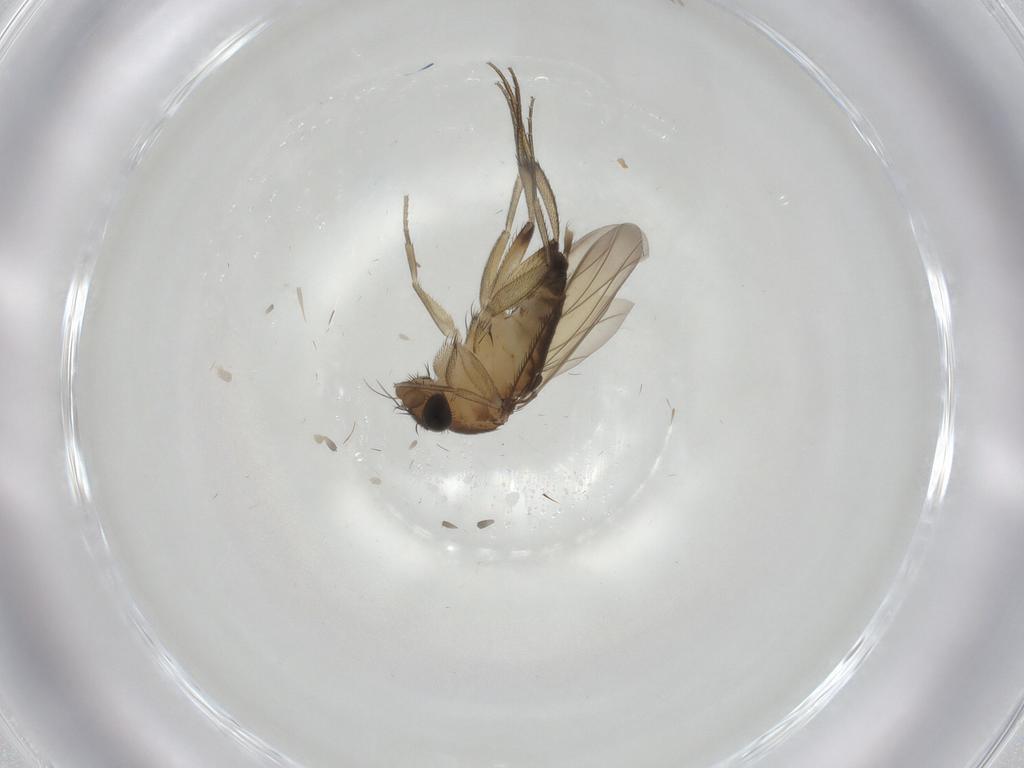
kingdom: Animalia
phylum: Arthropoda
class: Insecta
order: Diptera
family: Phoridae
